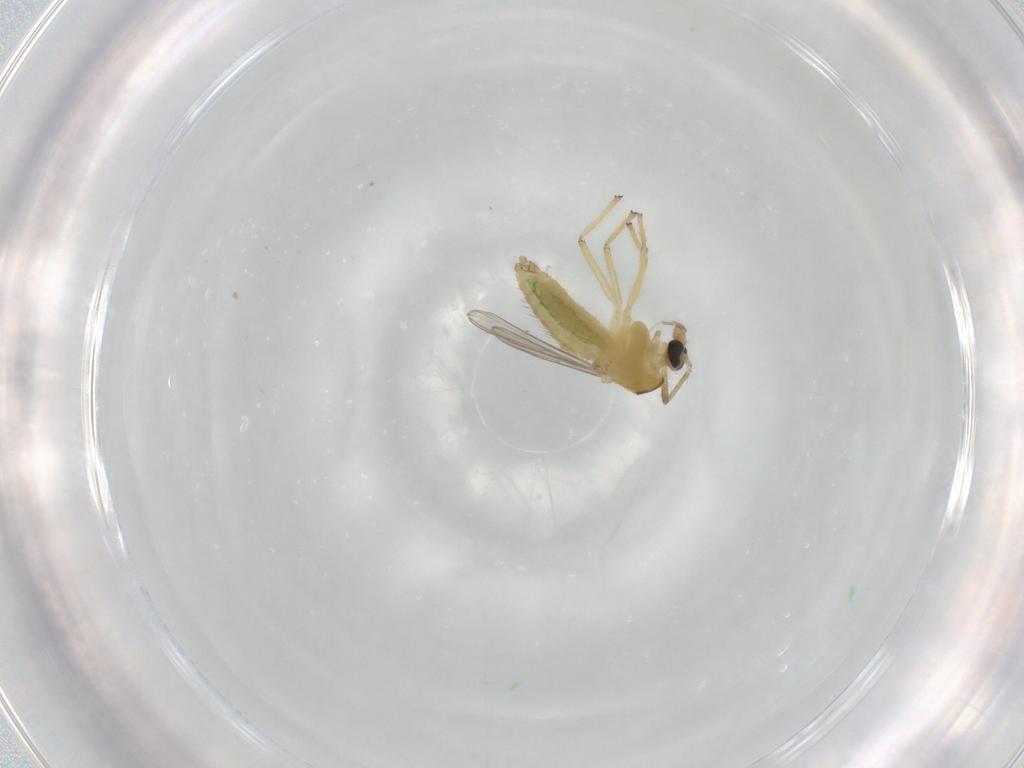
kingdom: Animalia
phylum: Arthropoda
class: Insecta
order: Diptera
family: Chironomidae
